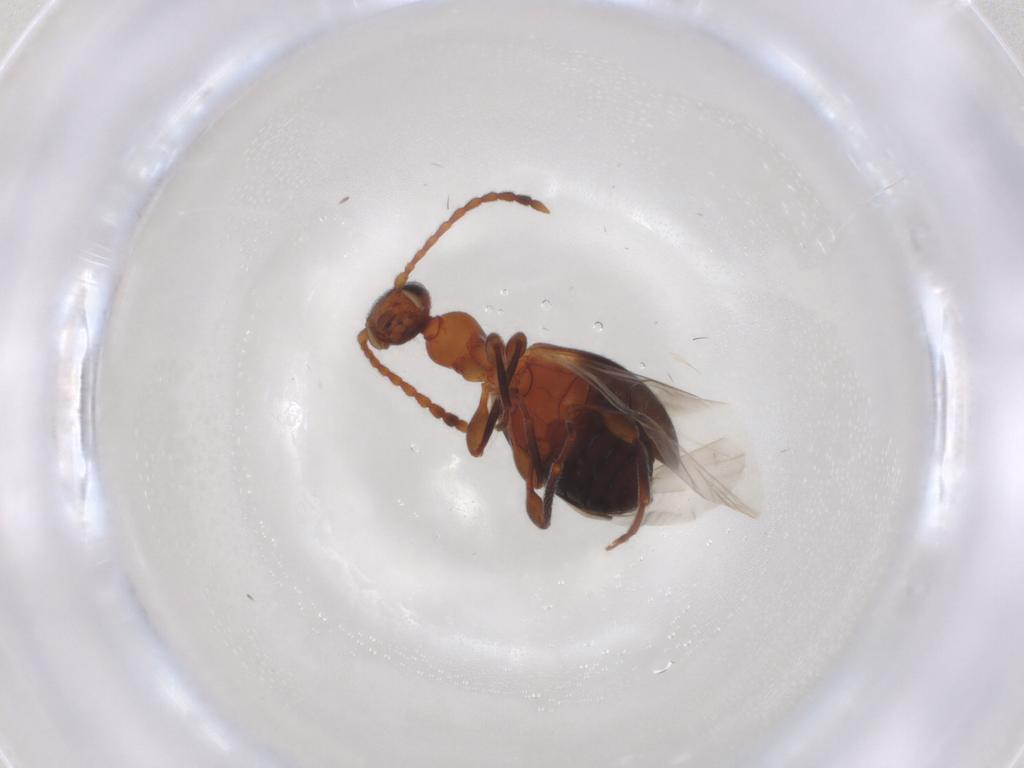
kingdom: Animalia
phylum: Arthropoda
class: Insecta
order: Coleoptera
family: Anthicidae
